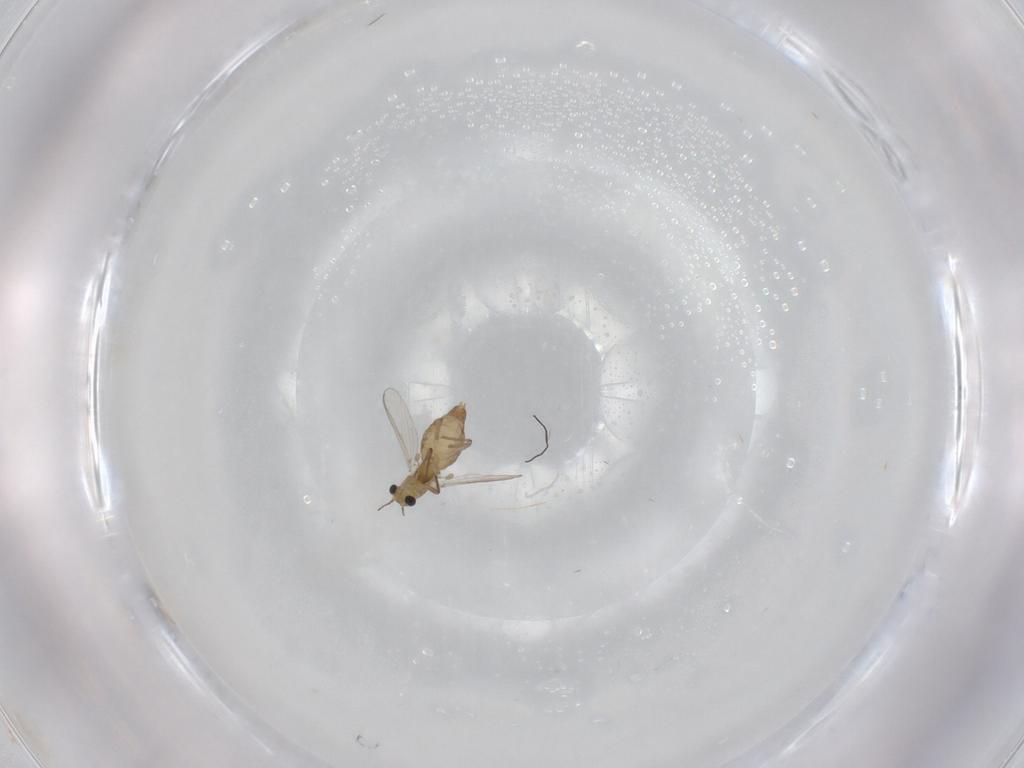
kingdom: Animalia
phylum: Arthropoda
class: Insecta
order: Diptera
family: Chironomidae
